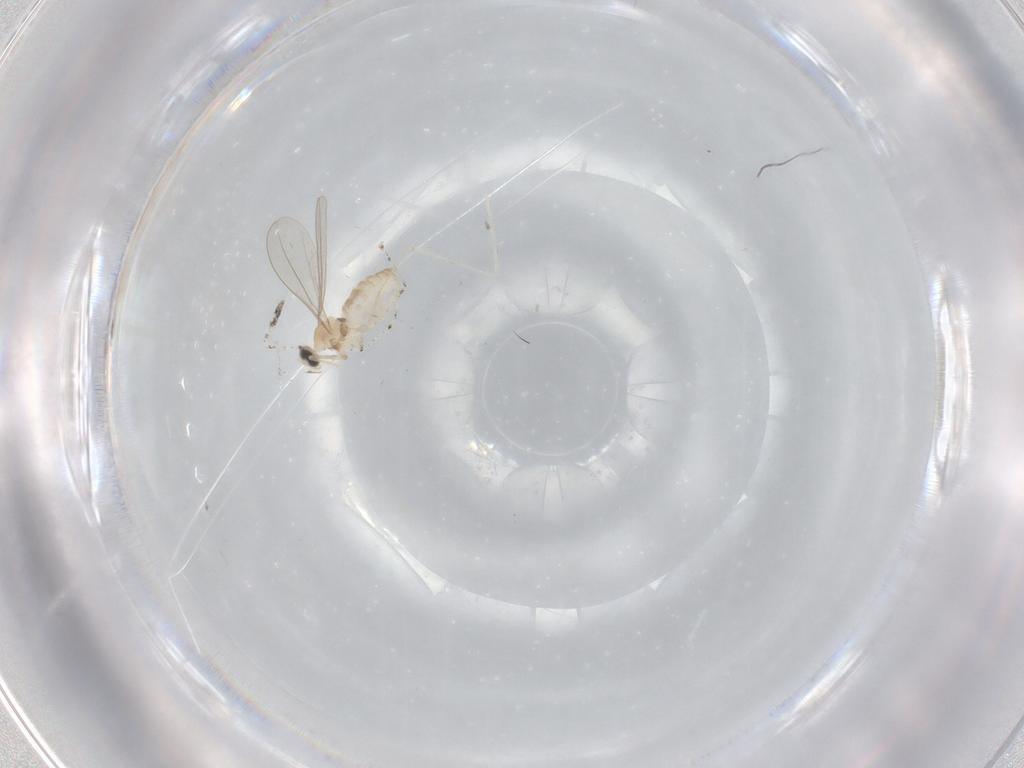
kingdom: Animalia
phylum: Arthropoda
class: Insecta
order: Diptera
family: Cecidomyiidae
